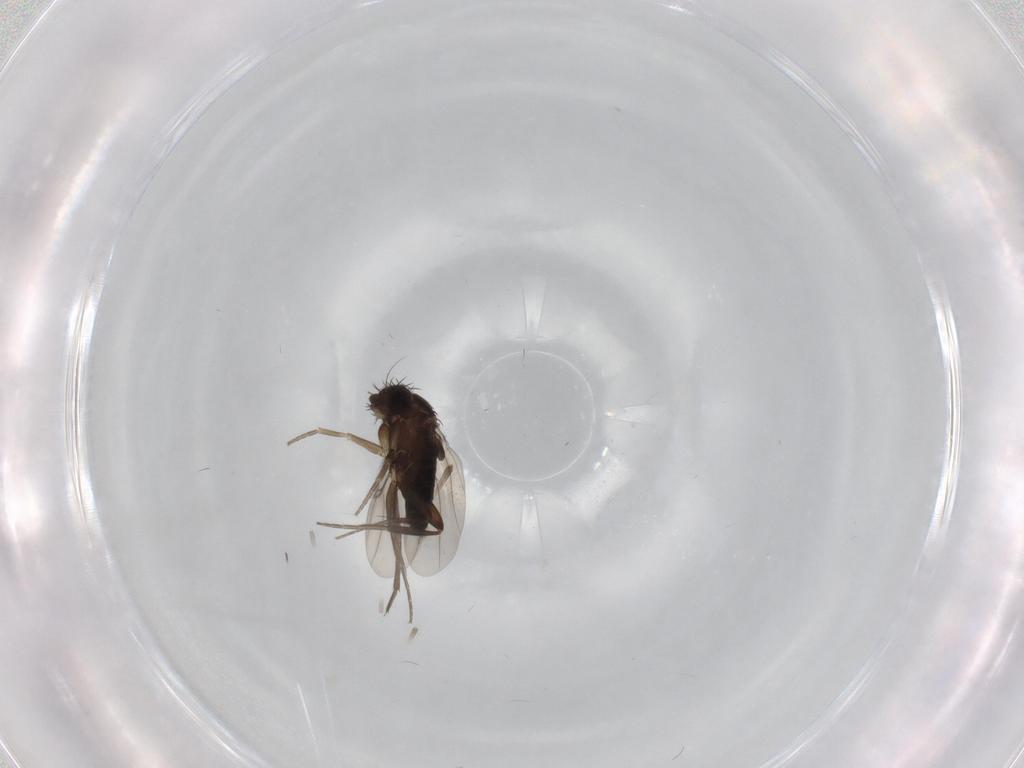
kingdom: Animalia
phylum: Arthropoda
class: Insecta
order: Diptera
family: Phoridae
